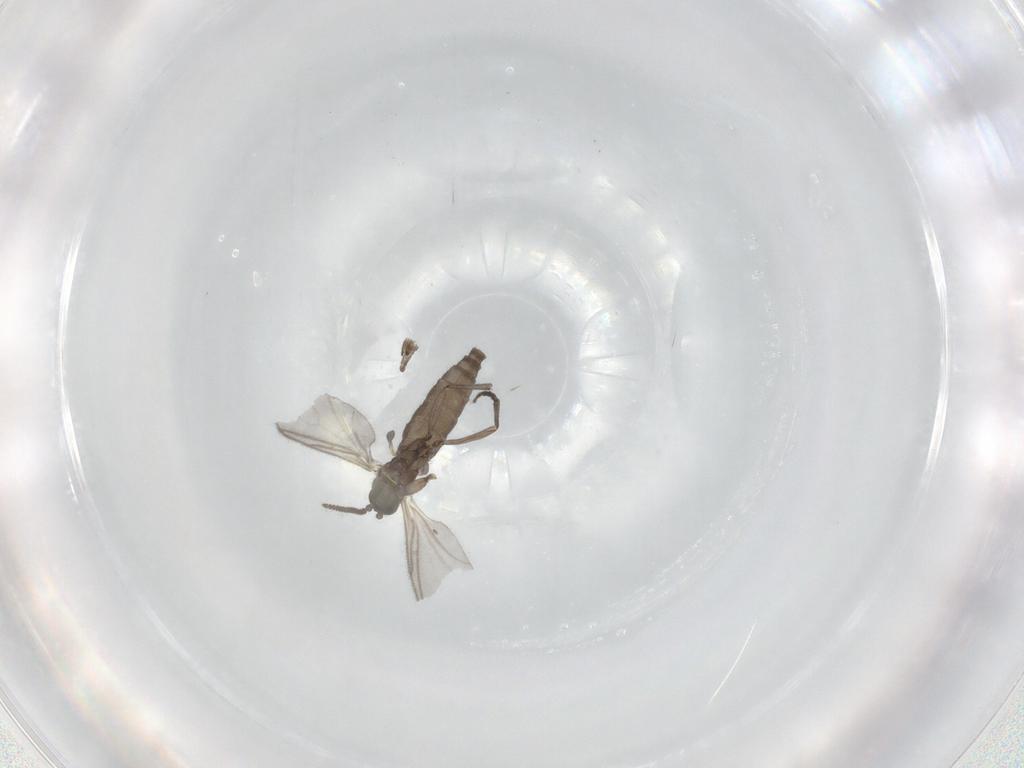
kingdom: Animalia
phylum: Arthropoda
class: Insecta
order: Diptera
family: Sciaridae
